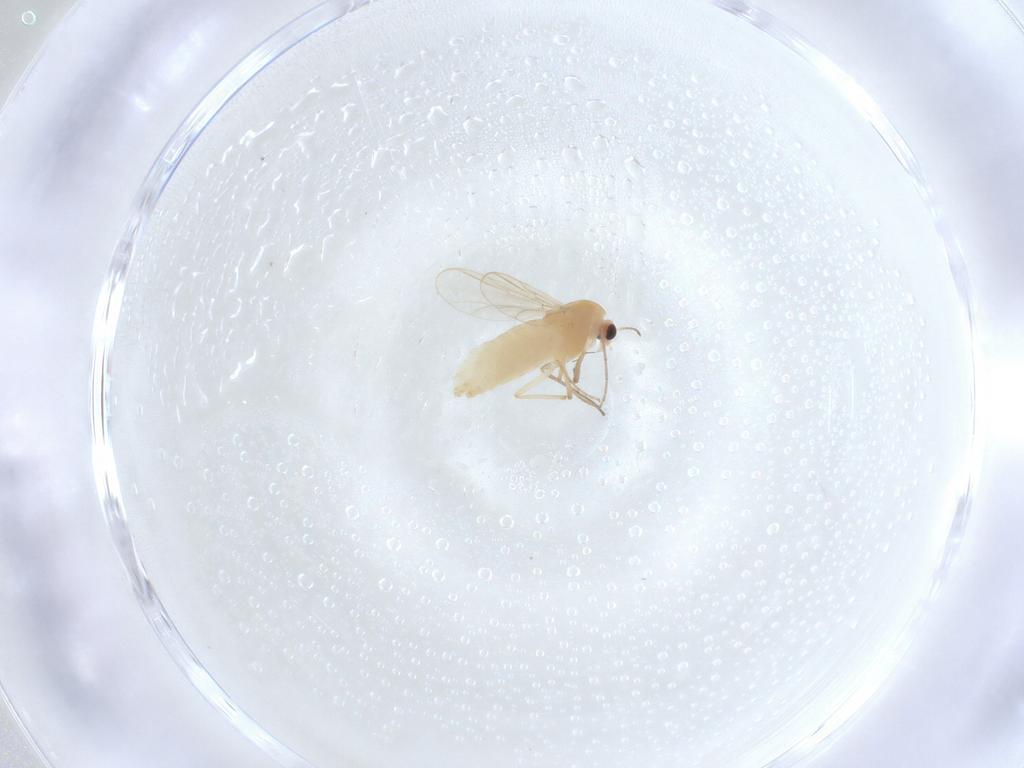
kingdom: Animalia
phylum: Arthropoda
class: Insecta
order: Diptera
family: Chironomidae
